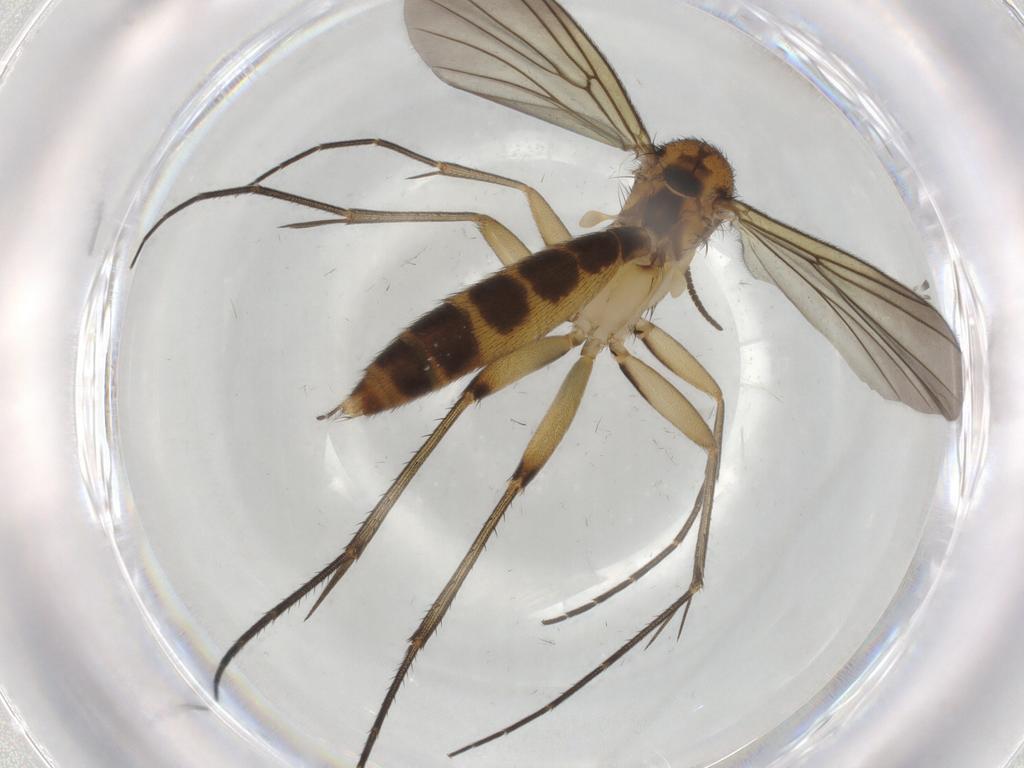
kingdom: Animalia
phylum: Arthropoda
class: Insecta
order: Diptera
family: Mycetophilidae
